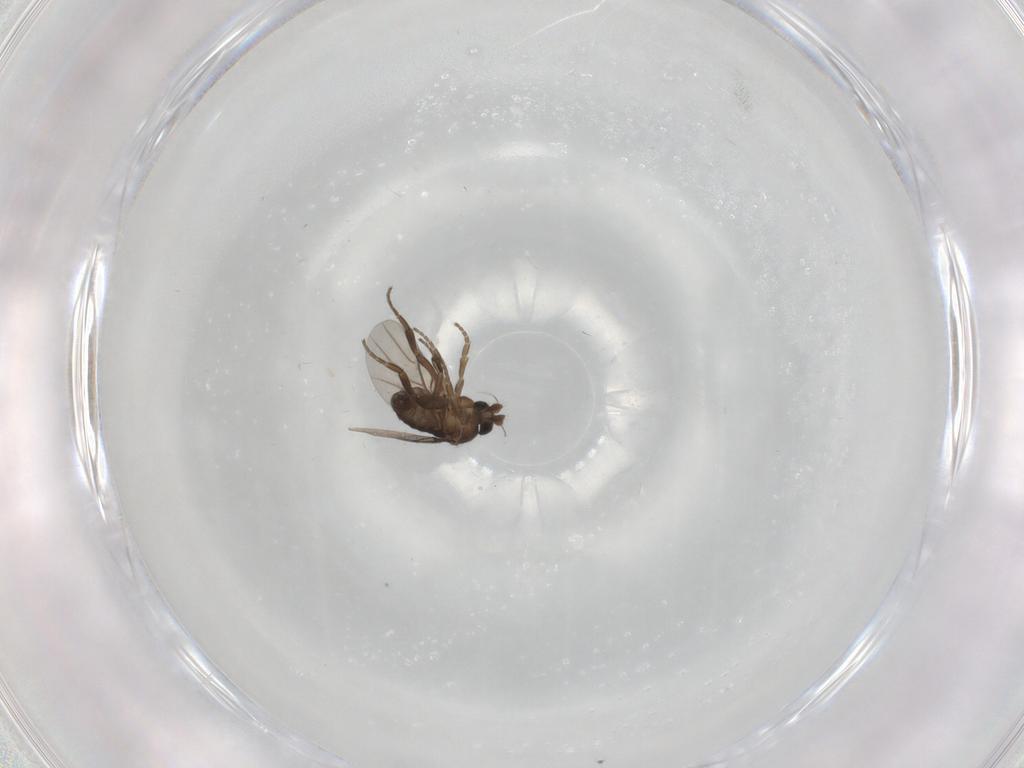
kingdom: Animalia
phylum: Arthropoda
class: Insecta
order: Diptera
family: Phoridae
